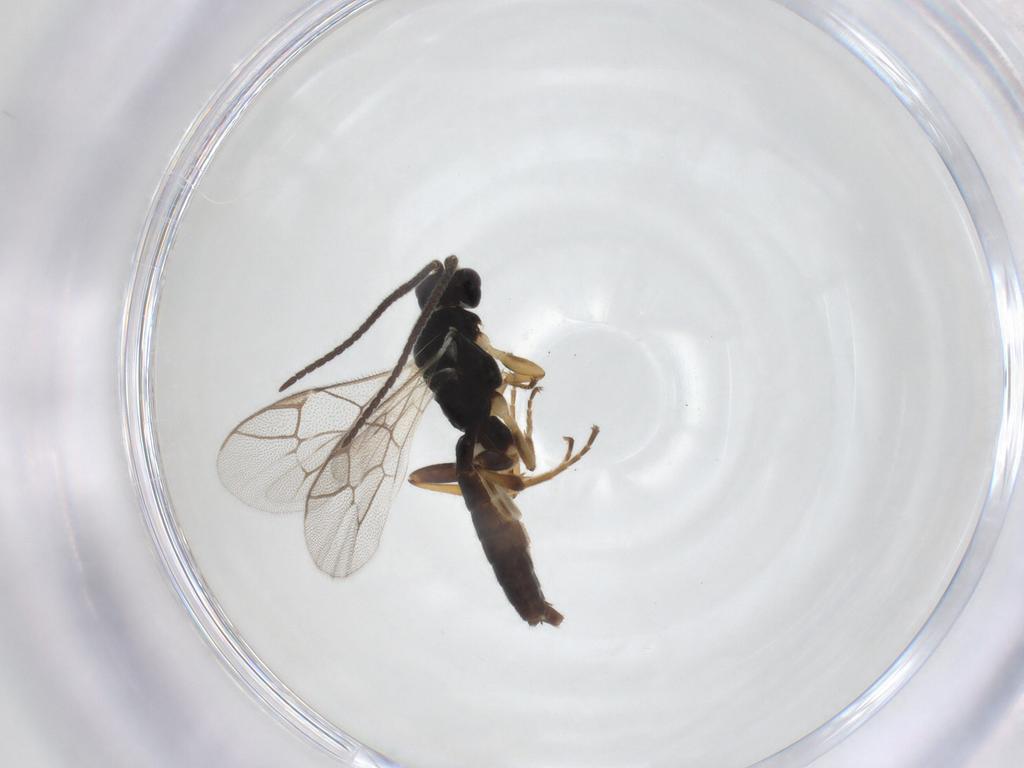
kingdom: Animalia
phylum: Arthropoda
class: Insecta
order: Hymenoptera
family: Ichneumonidae
